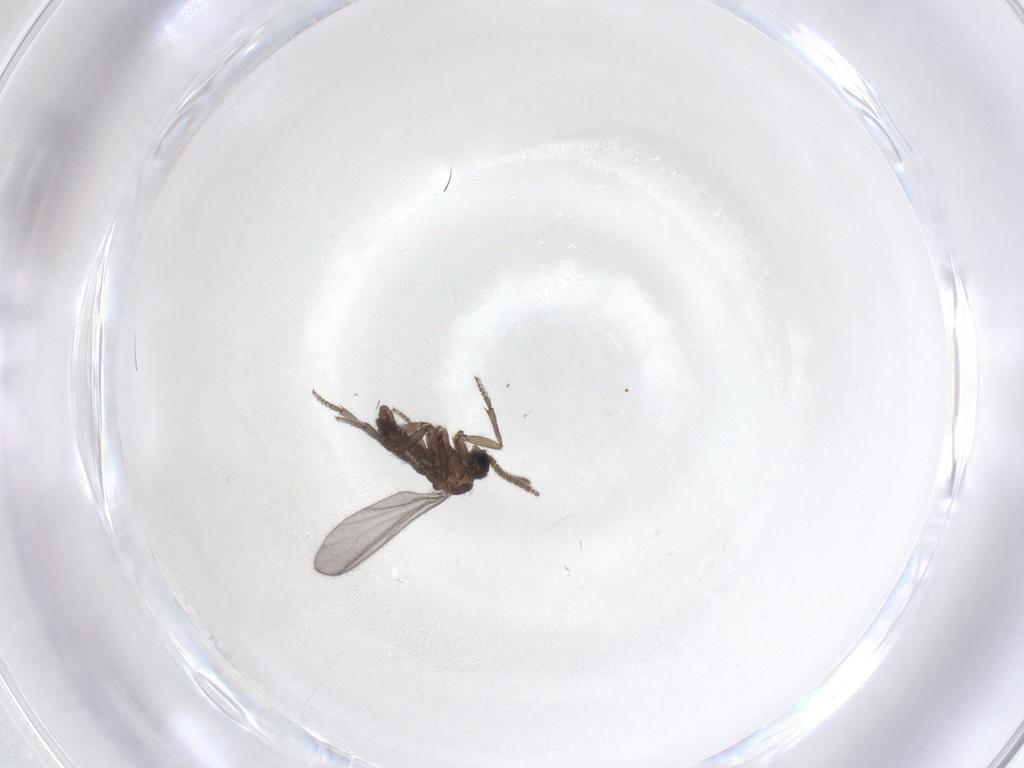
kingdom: Animalia
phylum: Arthropoda
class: Insecta
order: Diptera
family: Sciaridae
